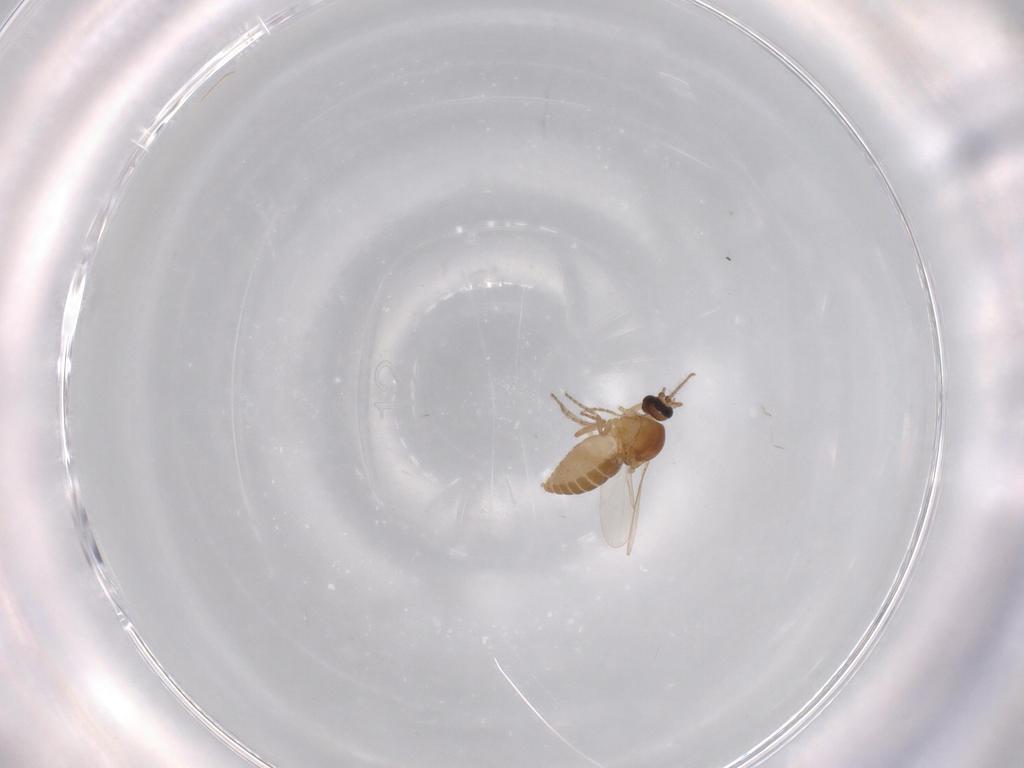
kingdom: Animalia
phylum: Arthropoda
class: Insecta
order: Diptera
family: Ceratopogonidae
